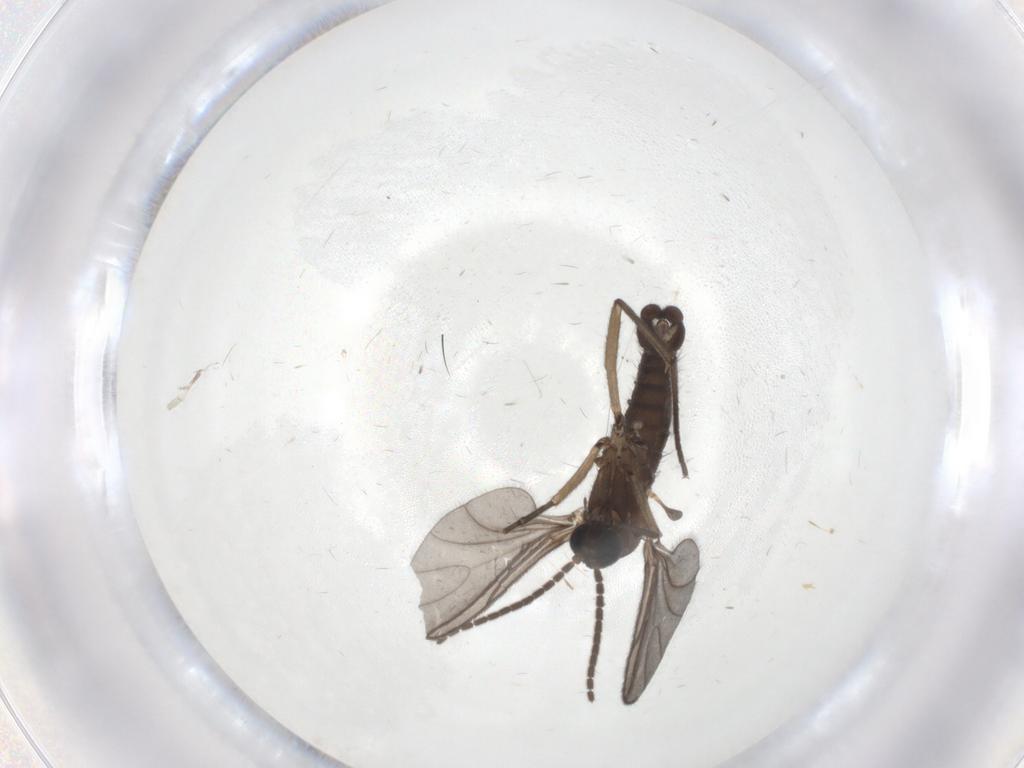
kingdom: Animalia
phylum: Arthropoda
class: Insecta
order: Diptera
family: Sciaridae
